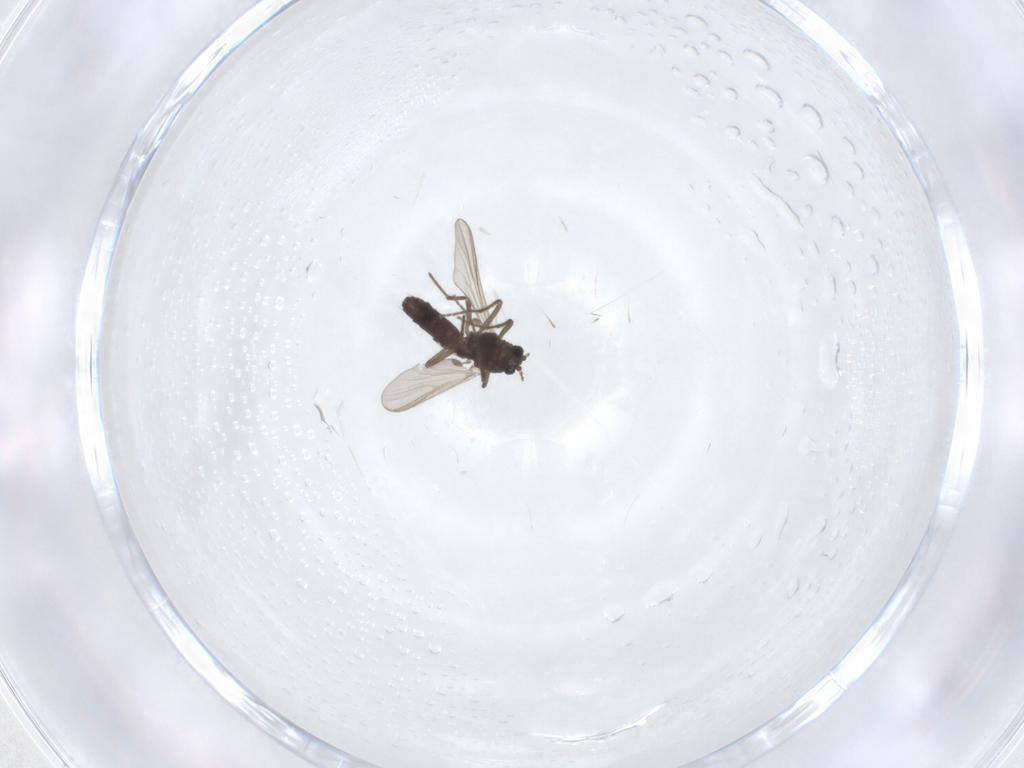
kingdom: Animalia
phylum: Arthropoda
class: Insecta
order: Diptera
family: Chironomidae
